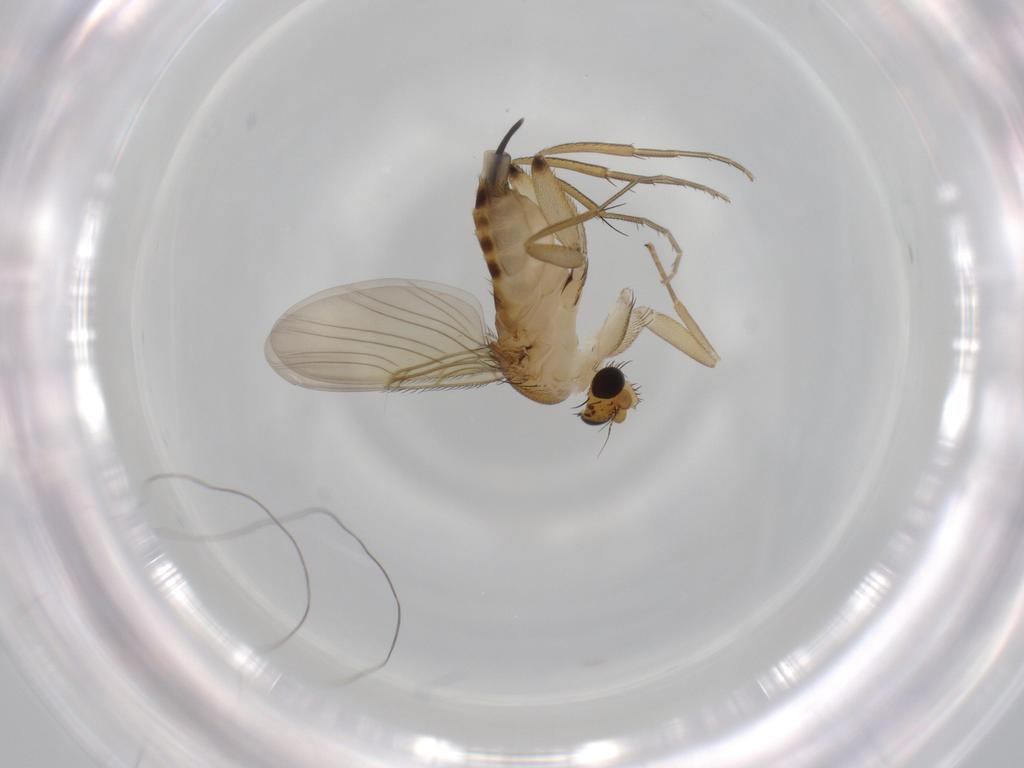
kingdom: Animalia
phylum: Arthropoda
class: Insecta
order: Diptera
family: Phoridae
